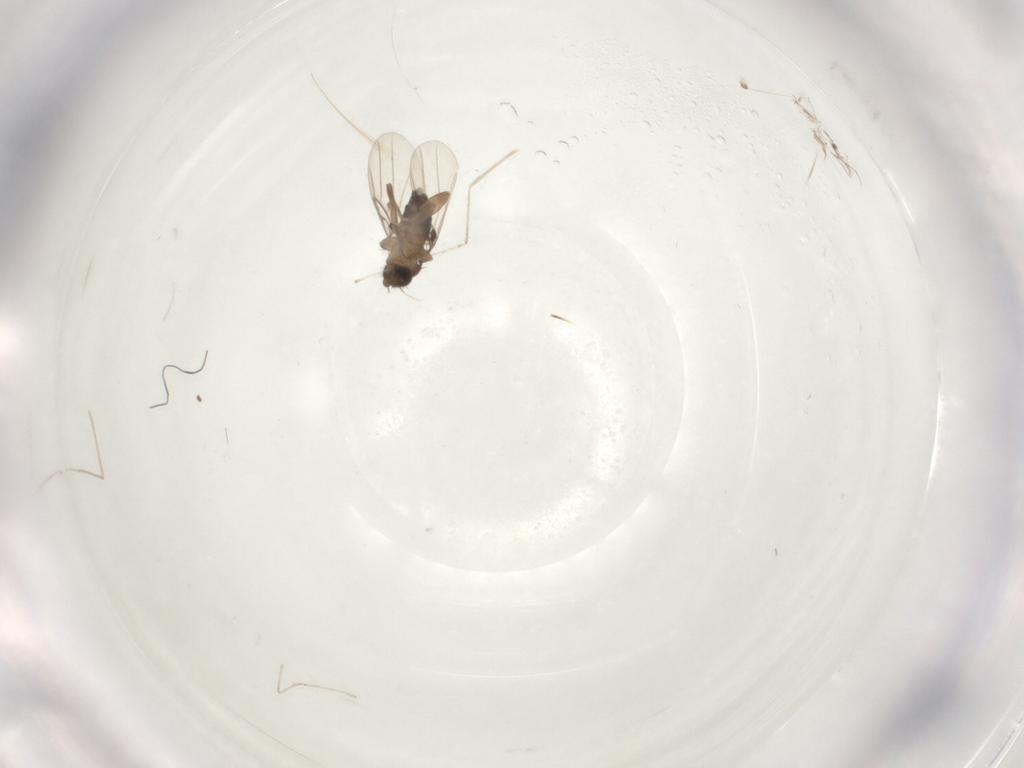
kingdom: Animalia
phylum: Arthropoda
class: Insecta
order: Diptera
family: Phoridae
